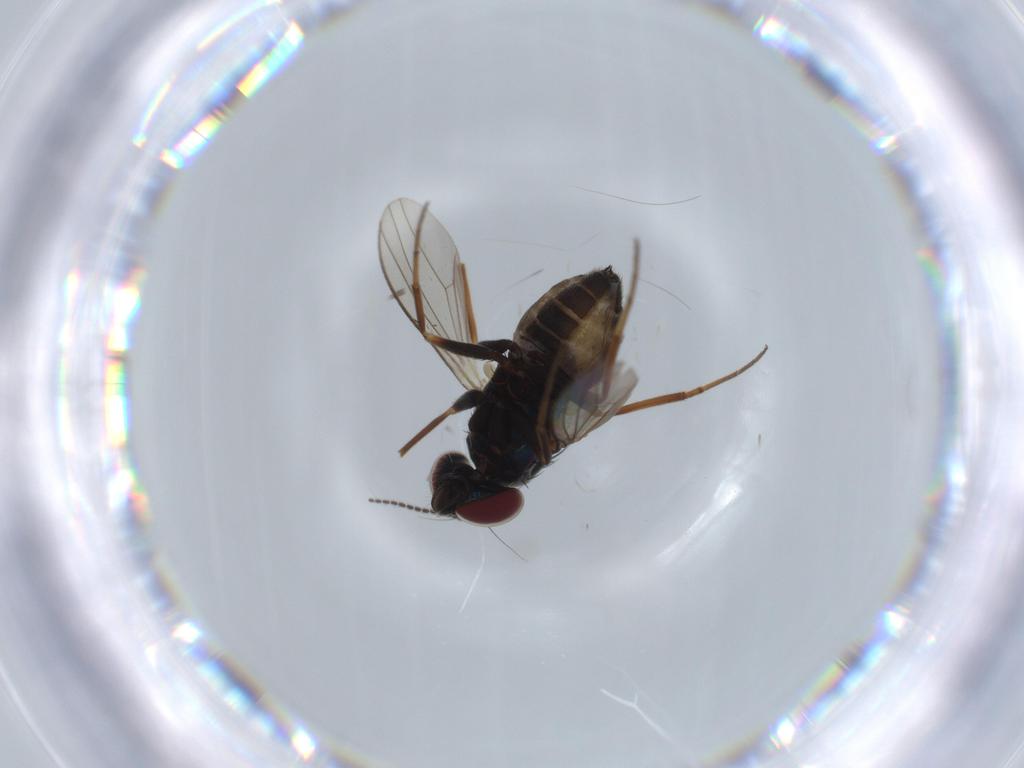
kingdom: Animalia
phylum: Arthropoda
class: Insecta
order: Diptera
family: Dolichopodidae
